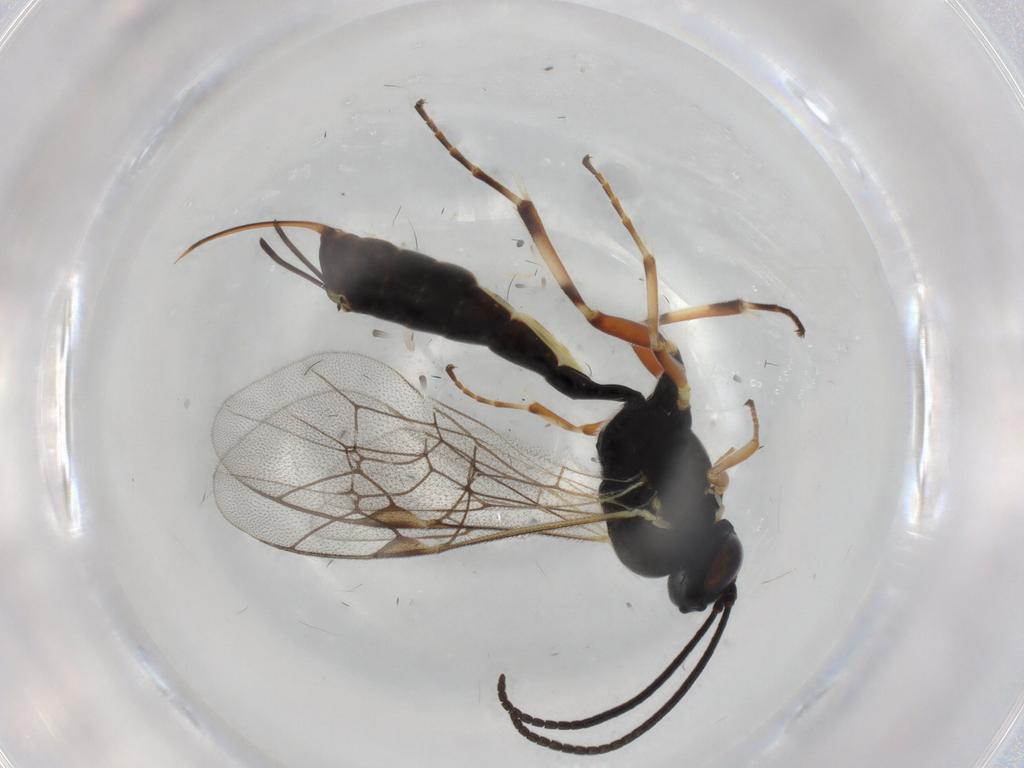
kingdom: Animalia
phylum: Arthropoda
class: Insecta
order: Hymenoptera
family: Ichneumonidae
